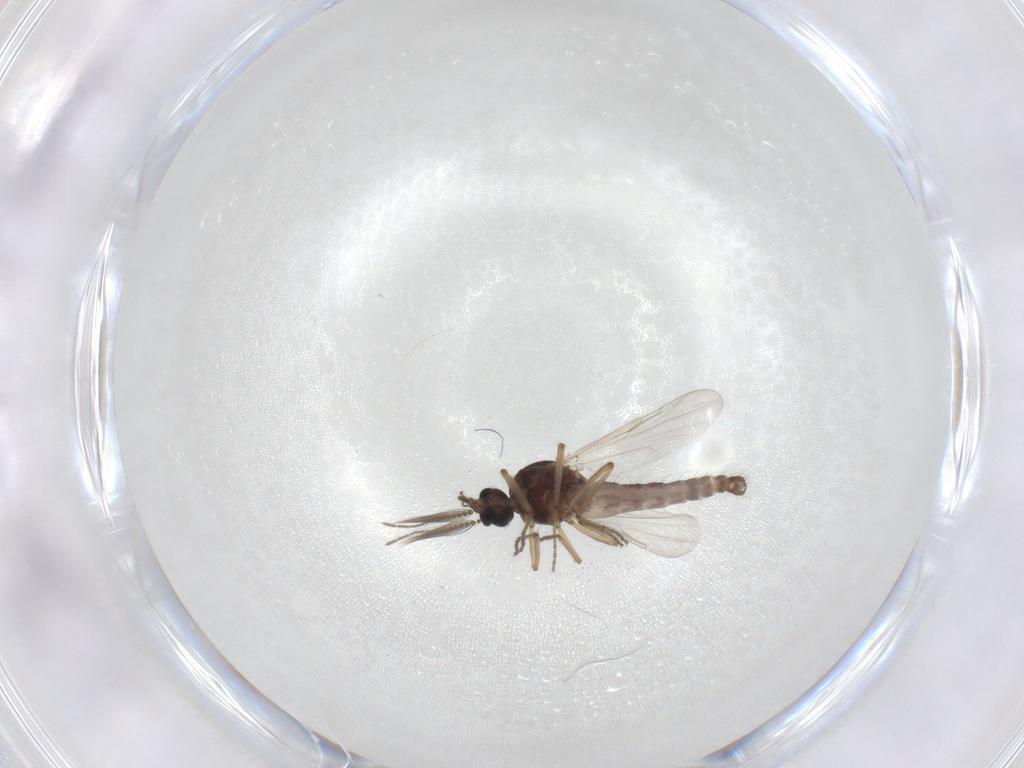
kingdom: Animalia
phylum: Arthropoda
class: Insecta
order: Diptera
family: Ceratopogonidae
